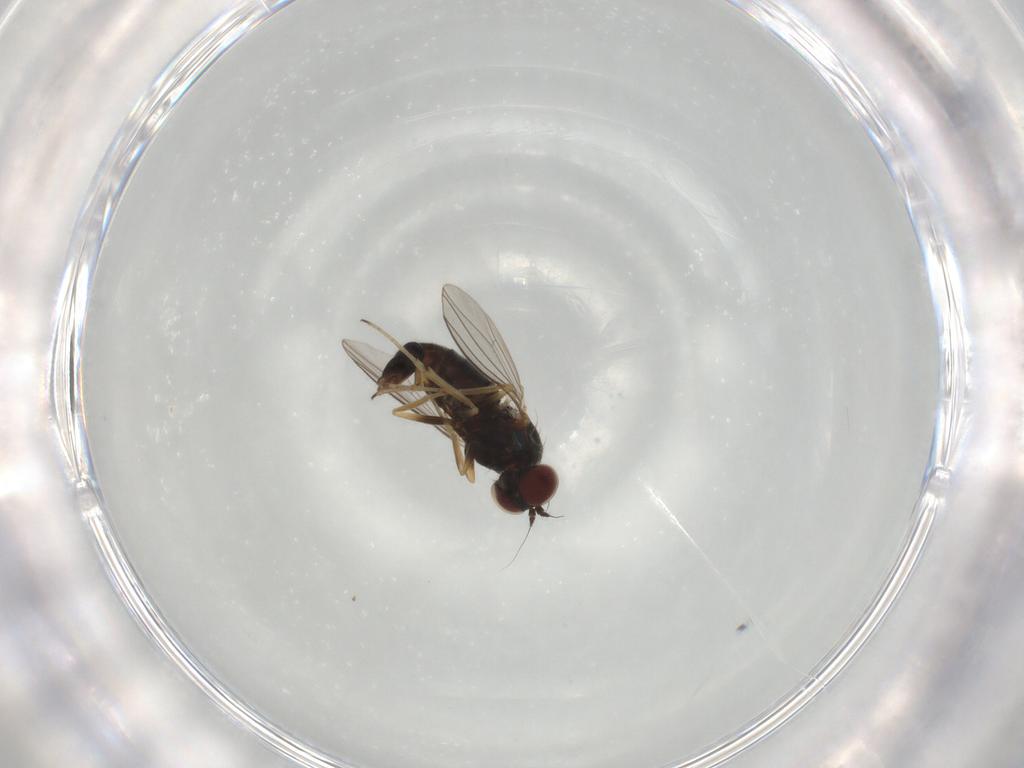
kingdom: Animalia
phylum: Arthropoda
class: Insecta
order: Diptera
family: Dolichopodidae
